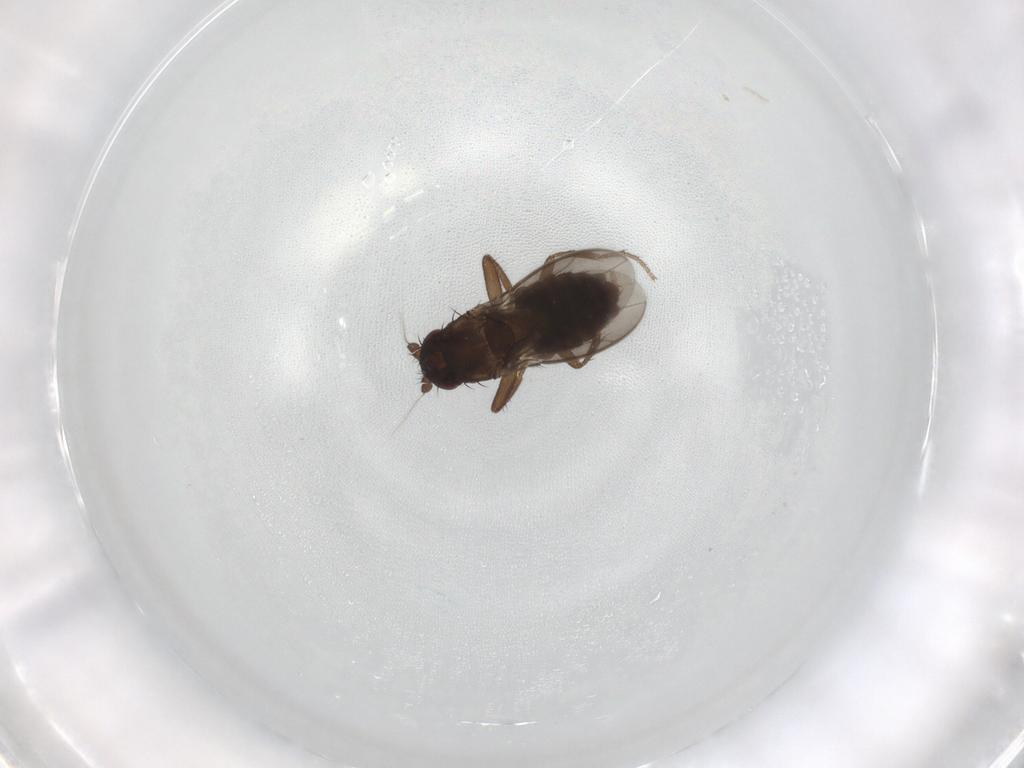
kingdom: Animalia
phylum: Arthropoda
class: Insecta
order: Diptera
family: Sphaeroceridae
